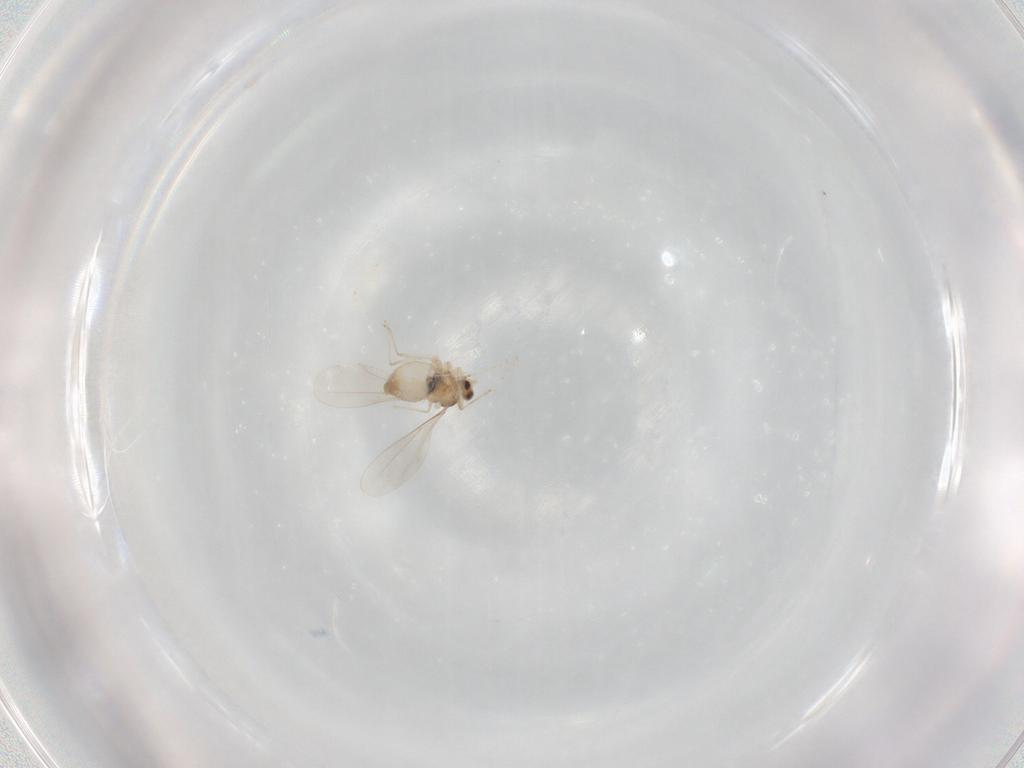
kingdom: Animalia
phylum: Arthropoda
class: Insecta
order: Diptera
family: Cecidomyiidae
